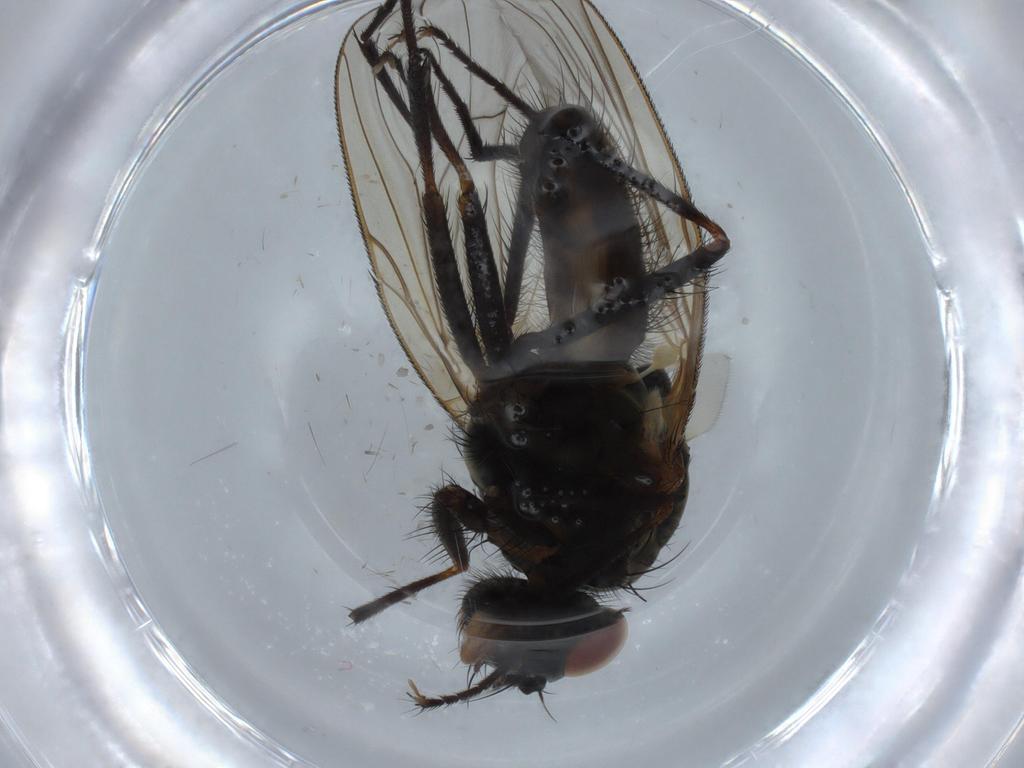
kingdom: Animalia
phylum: Arthropoda
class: Insecta
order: Diptera
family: Anthomyiidae
